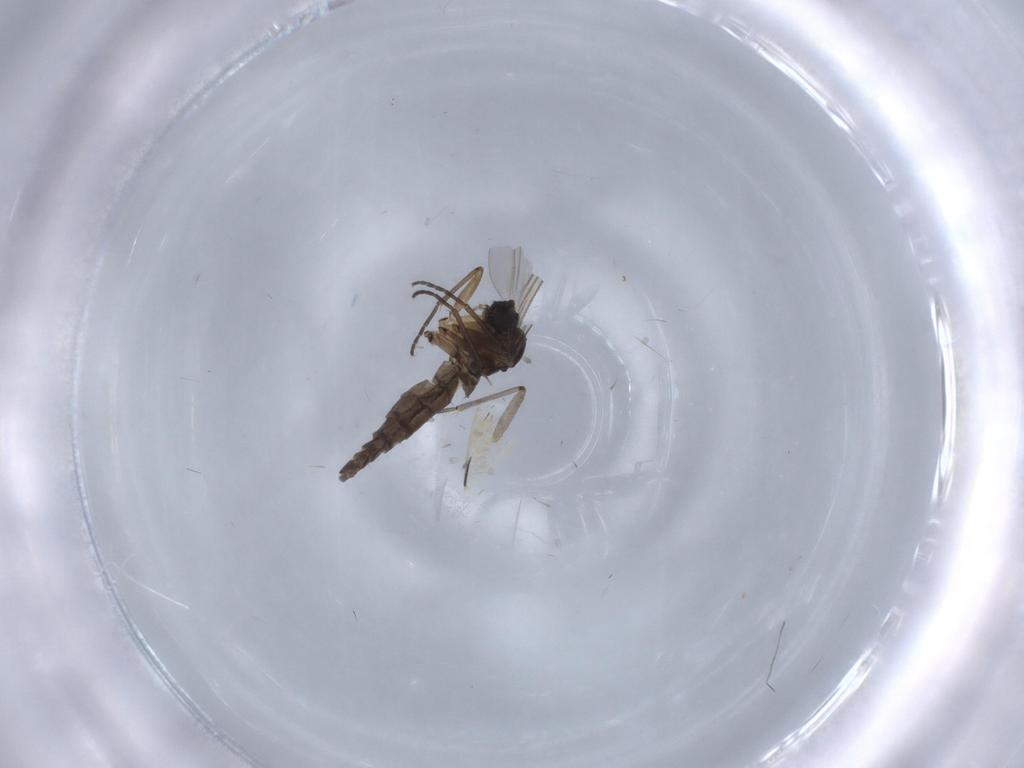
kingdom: Animalia
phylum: Arthropoda
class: Insecta
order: Diptera
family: Sciaridae
